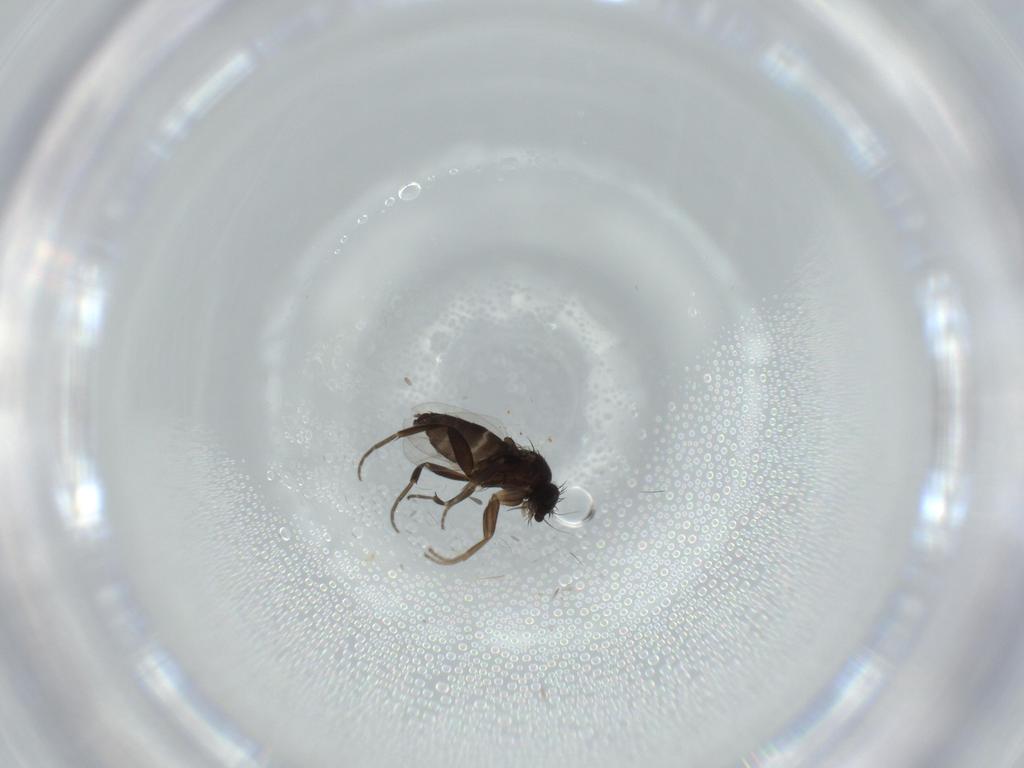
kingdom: Animalia
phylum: Arthropoda
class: Insecta
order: Diptera
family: Phoridae
